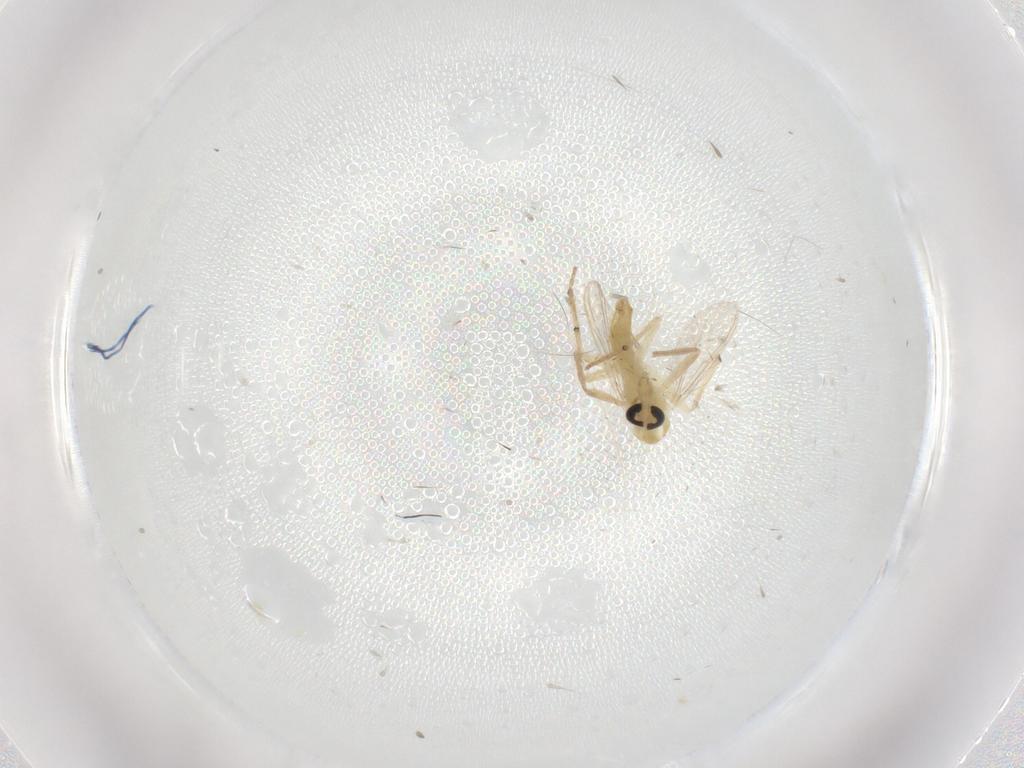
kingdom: Animalia
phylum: Arthropoda
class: Insecta
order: Diptera
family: Chironomidae
